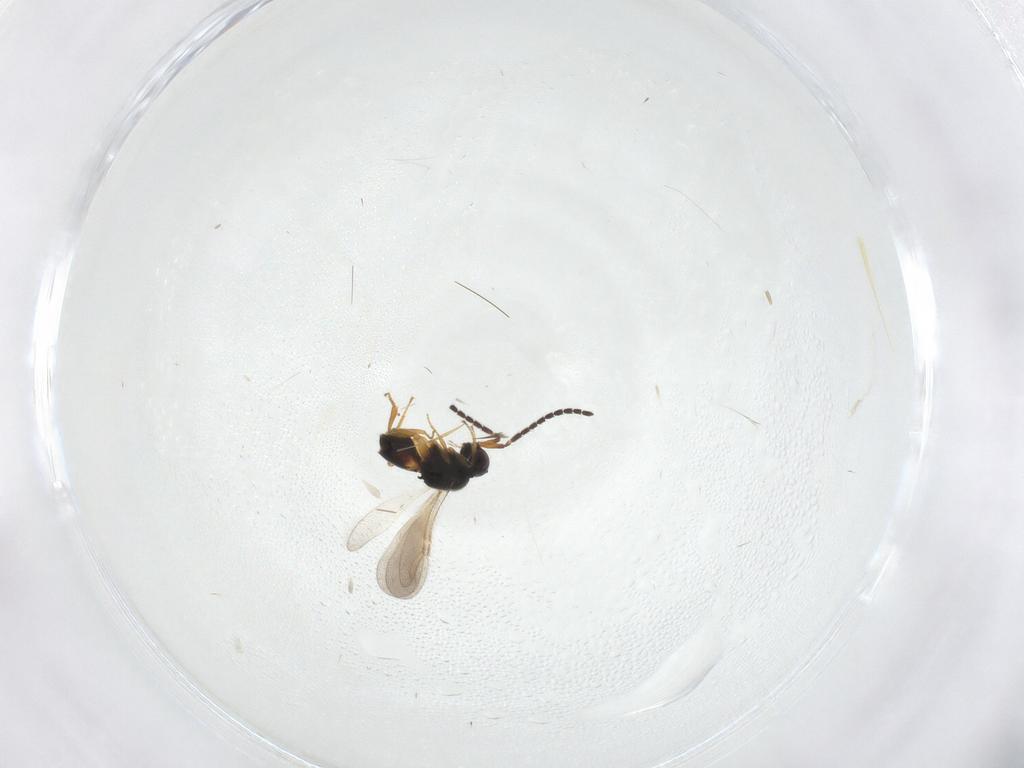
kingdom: Animalia
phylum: Arthropoda
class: Insecta
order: Hymenoptera
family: Ceraphronidae
